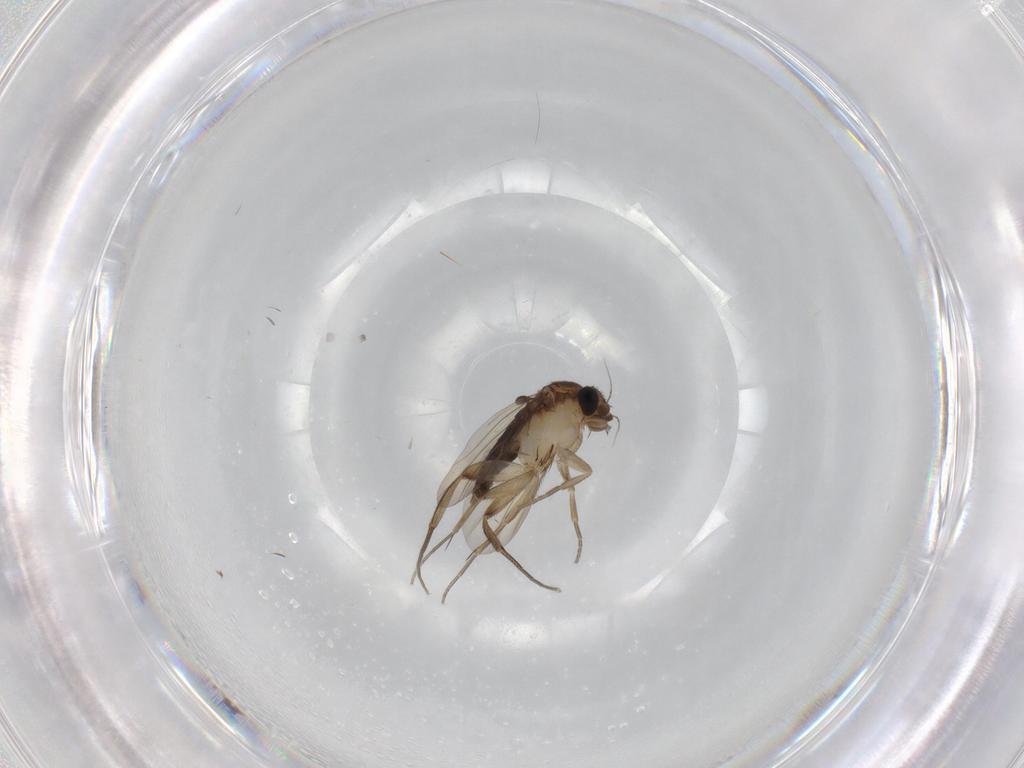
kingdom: Animalia
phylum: Arthropoda
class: Insecta
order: Diptera
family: Phoridae
